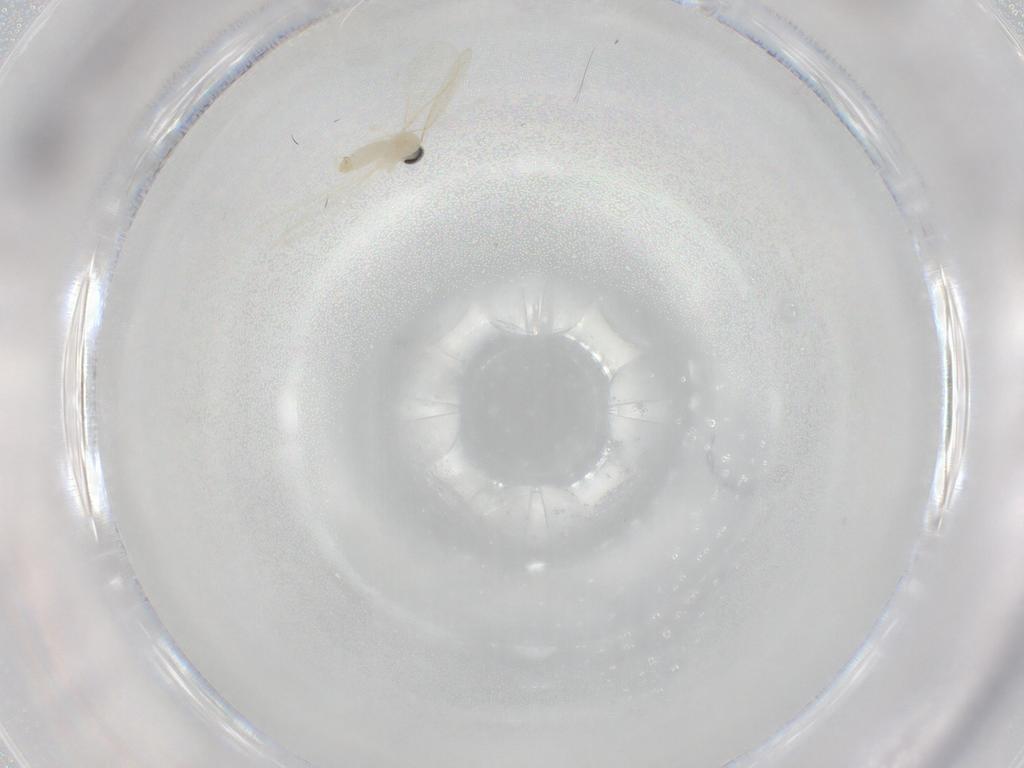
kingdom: Animalia
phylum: Arthropoda
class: Insecta
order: Diptera
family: Cecidomyiidae
